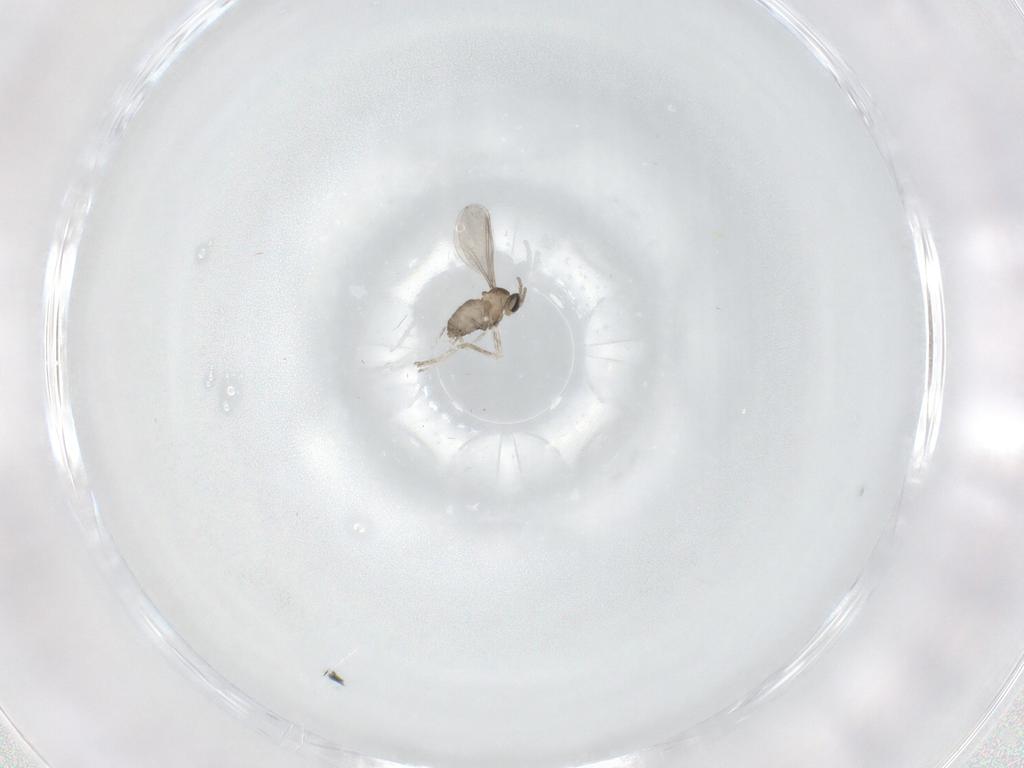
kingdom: Animalia
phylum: Arthropoda
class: Insecta
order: Diptera
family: Cecidomyiidae
